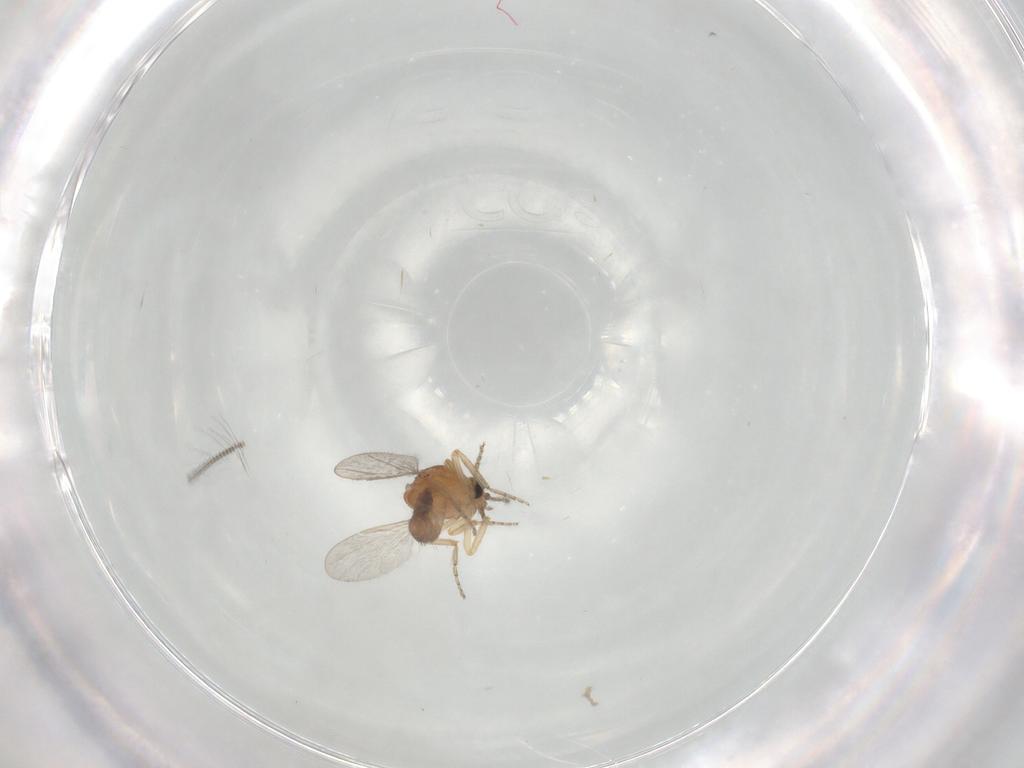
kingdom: Animalia
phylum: Arthropoda
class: Insecta
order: Diptera
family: Ceratopogonidae
